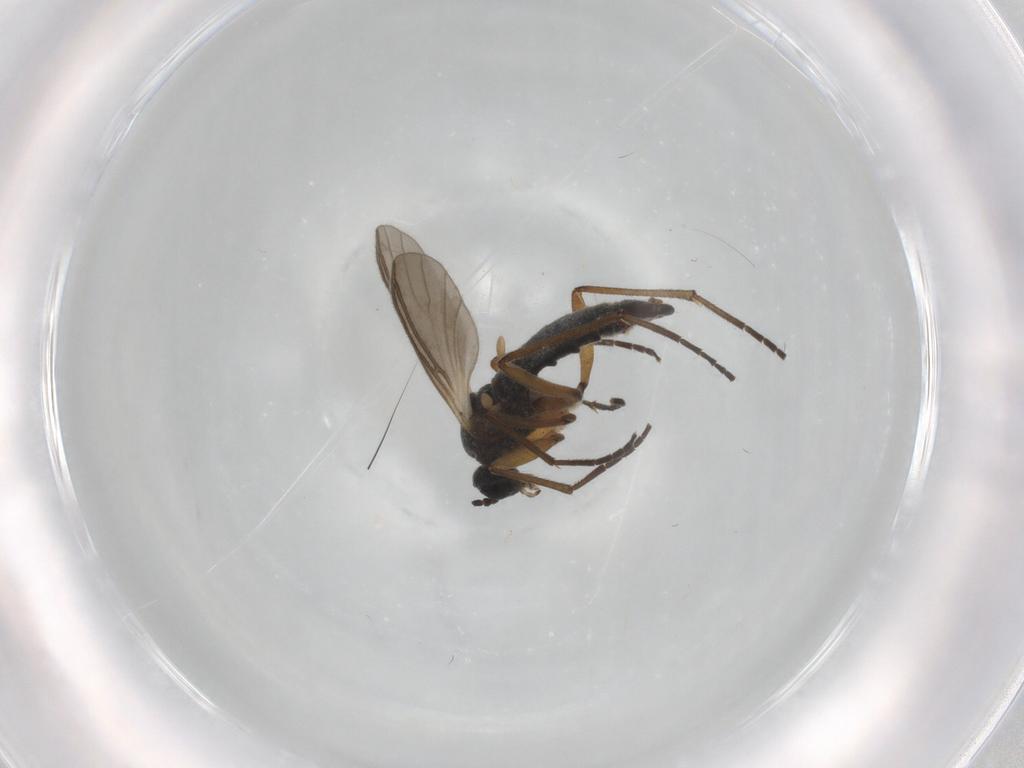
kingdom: Animalia
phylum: Arthropoda
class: Insecta
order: Diptera
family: Sciaridae
